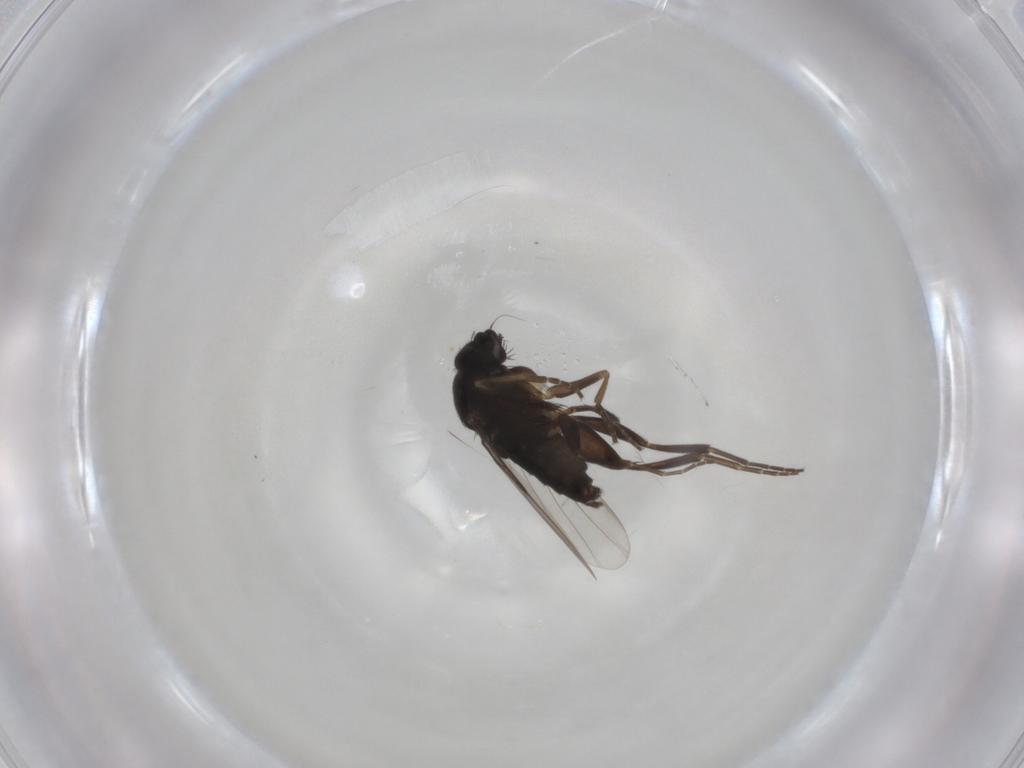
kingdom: Animalia
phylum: Arthropoda
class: Insecta
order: Diptera
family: Phoridae
